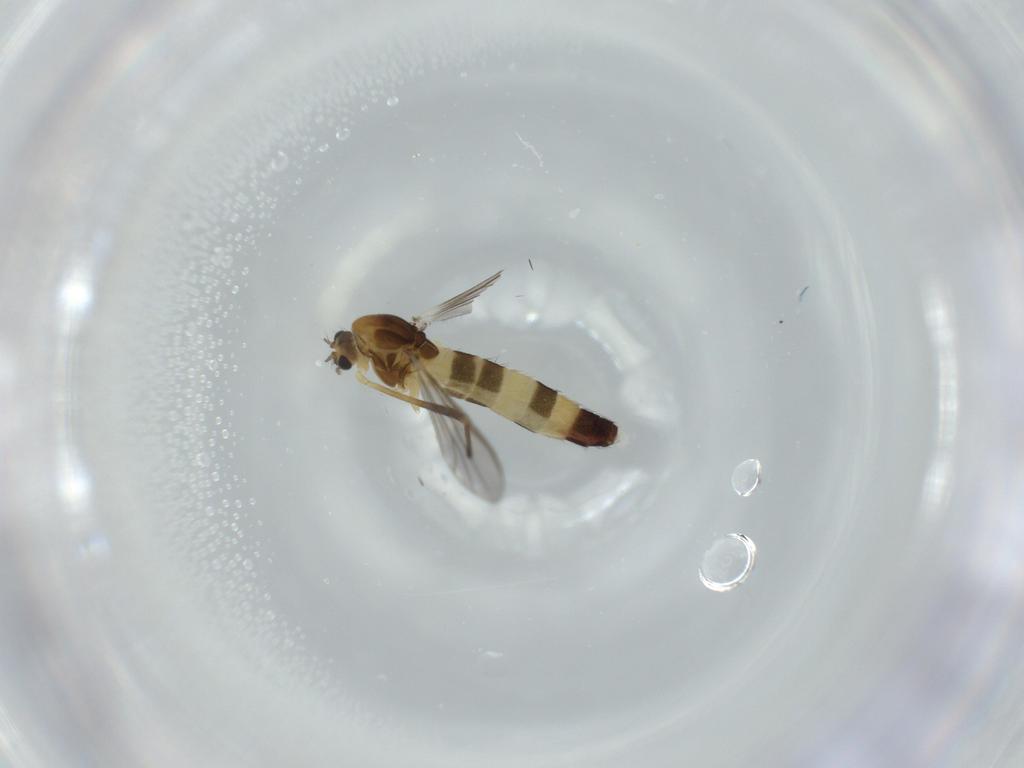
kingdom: Animalia
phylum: Arthropoda
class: Insecta
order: Diptera
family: Chironomidae
